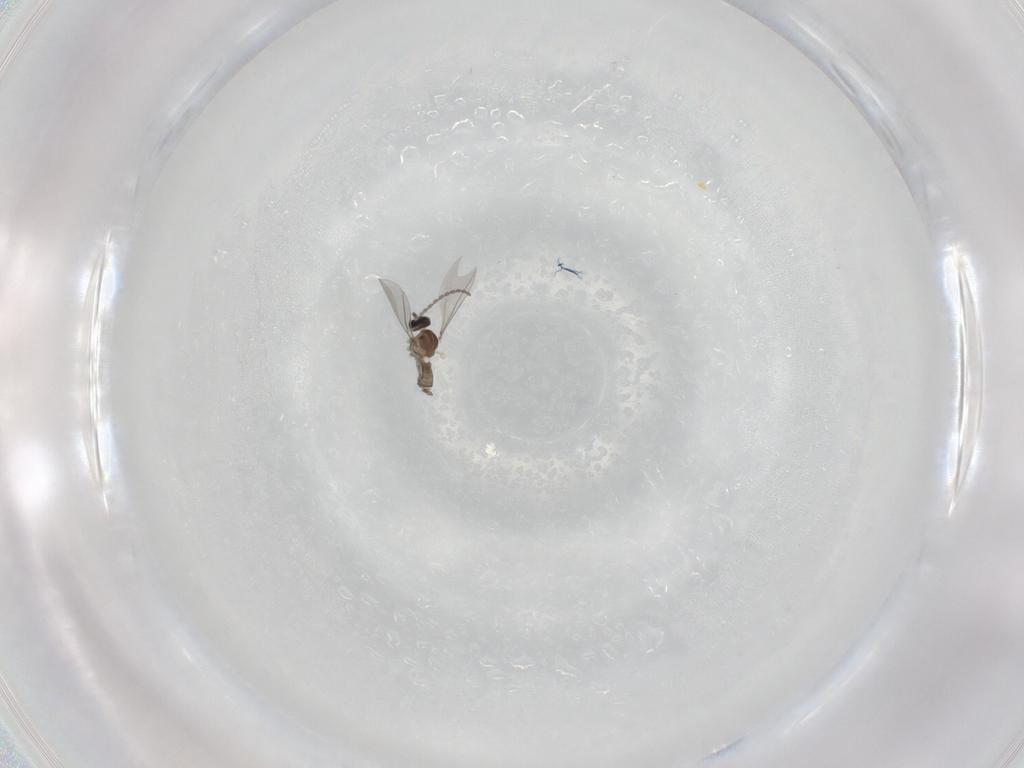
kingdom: Animalia
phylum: Arthropoda
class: Insecta
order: Diptera
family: Cecidomyiidae
